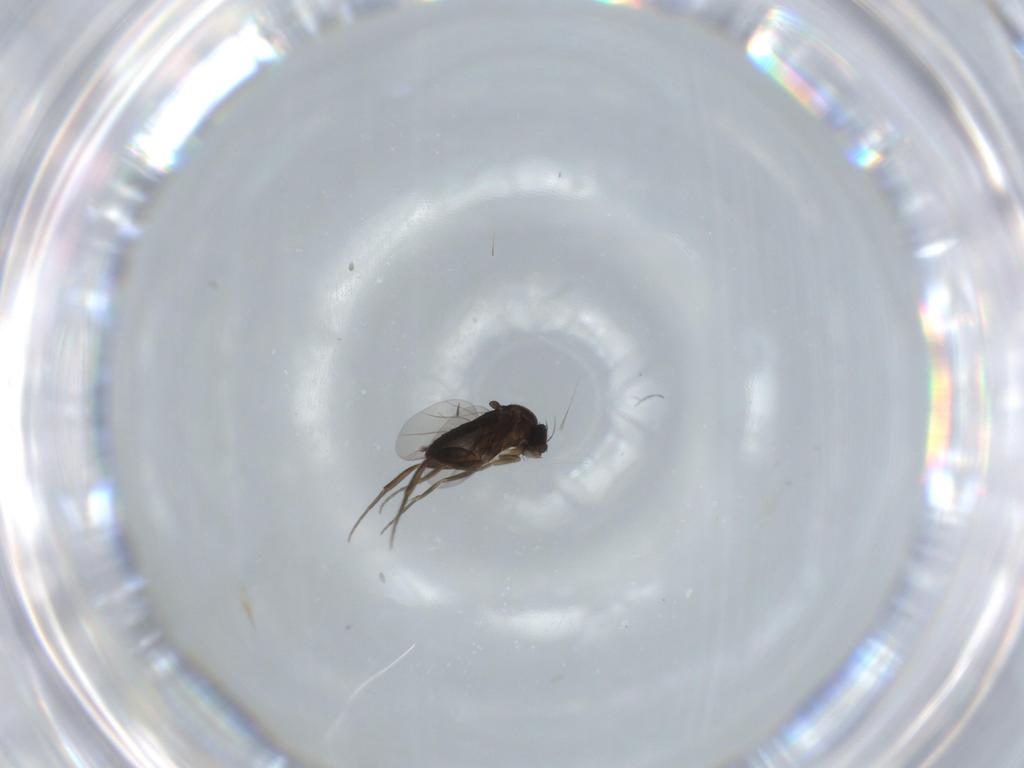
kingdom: Animalia
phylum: Arthropoda
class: Insecta
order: Diptera
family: Phoridae
